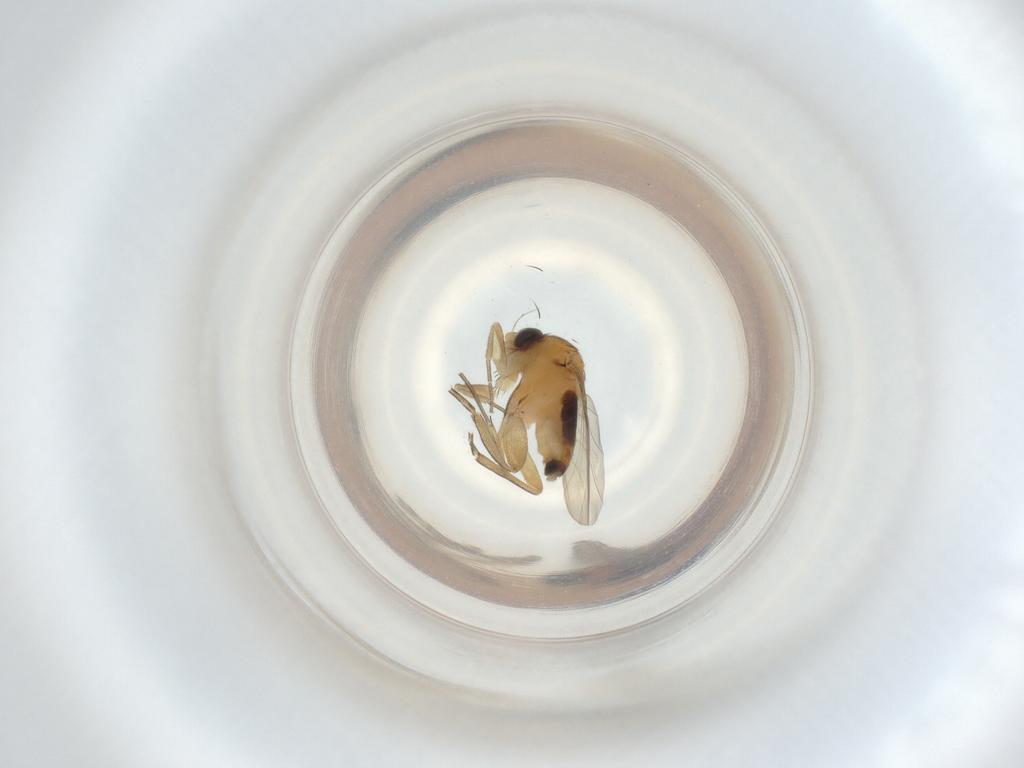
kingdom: Animalia
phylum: Arthropoda
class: Insecta
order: Diptera
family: Phoridae
